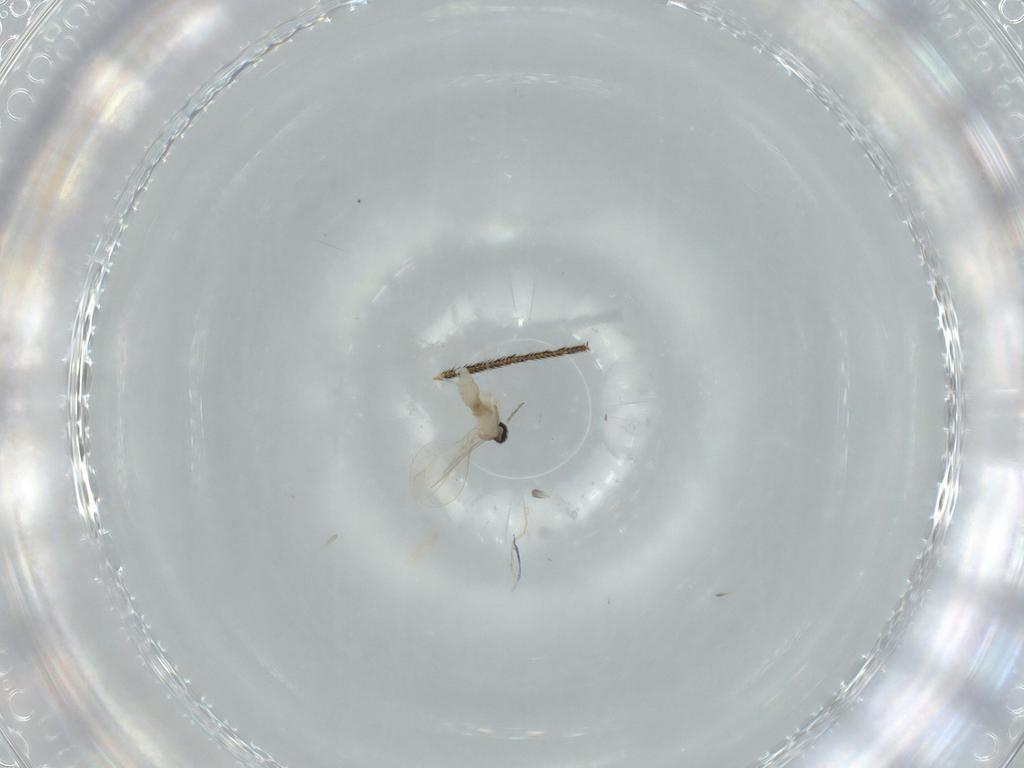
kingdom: Animalia
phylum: Arthropoda
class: Insecta
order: Diptera
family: Dolichopodidae
